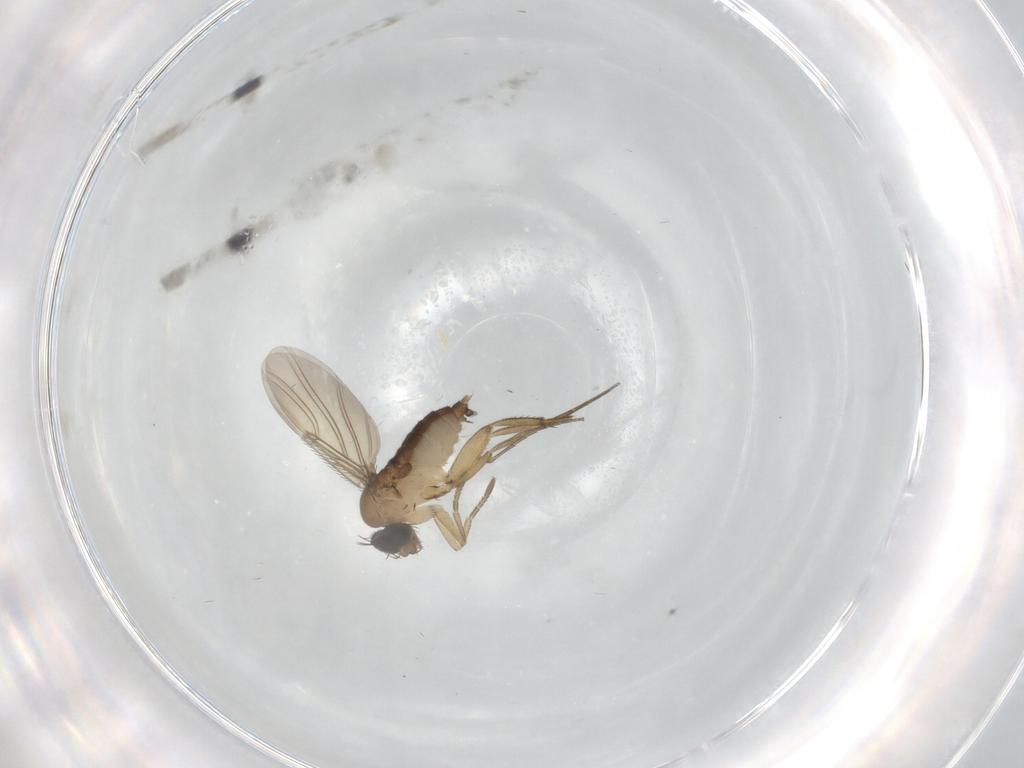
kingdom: Animalia
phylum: Arthropoda
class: Insecta
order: Diptera
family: Phoridae
